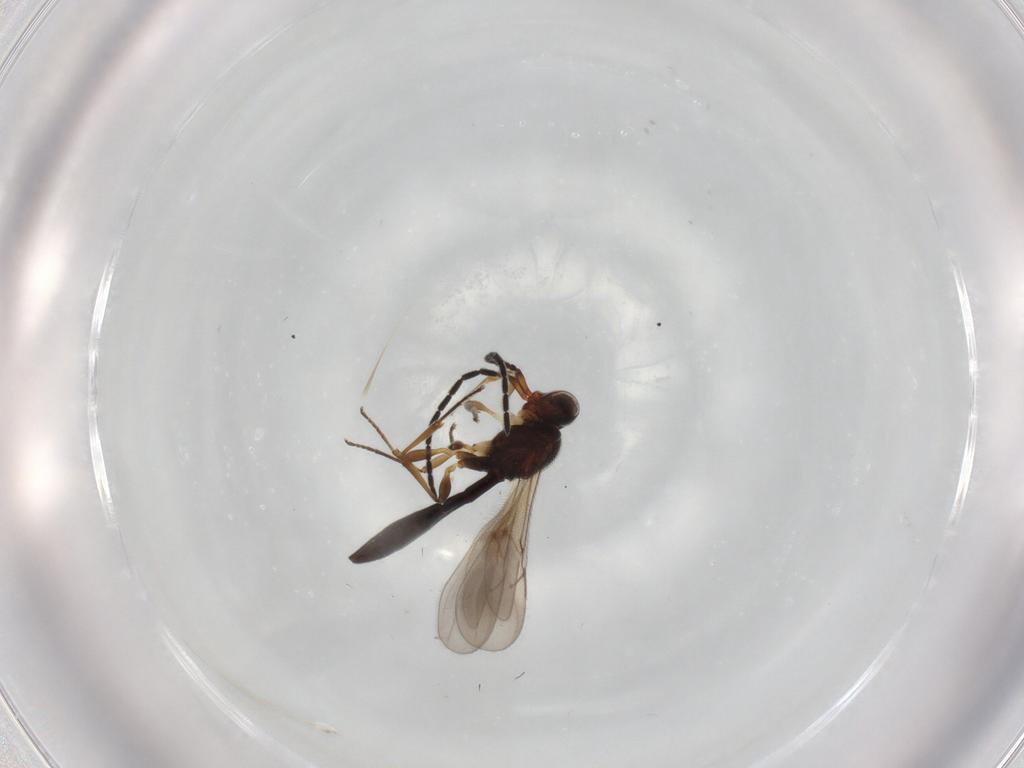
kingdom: Animalia
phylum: Arthropoda
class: Insecta
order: Hymenoptera
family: Scelionidae
